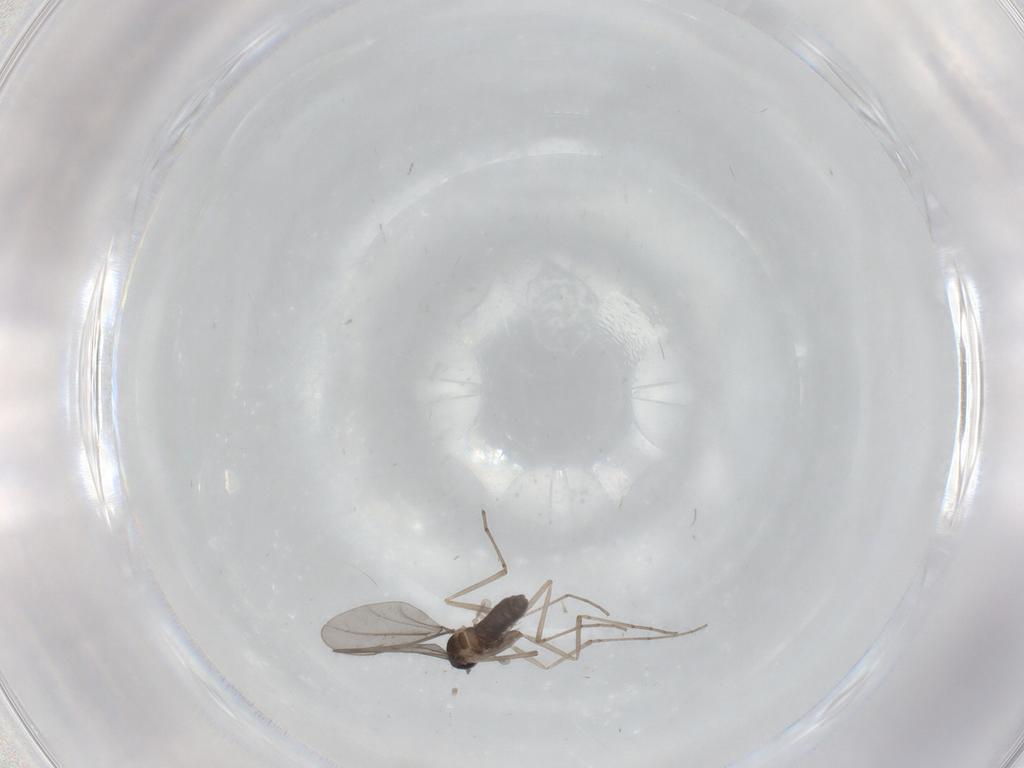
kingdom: Animalia
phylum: Arthropoda
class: Insecta
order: Diptera
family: Cecidomyiidae
